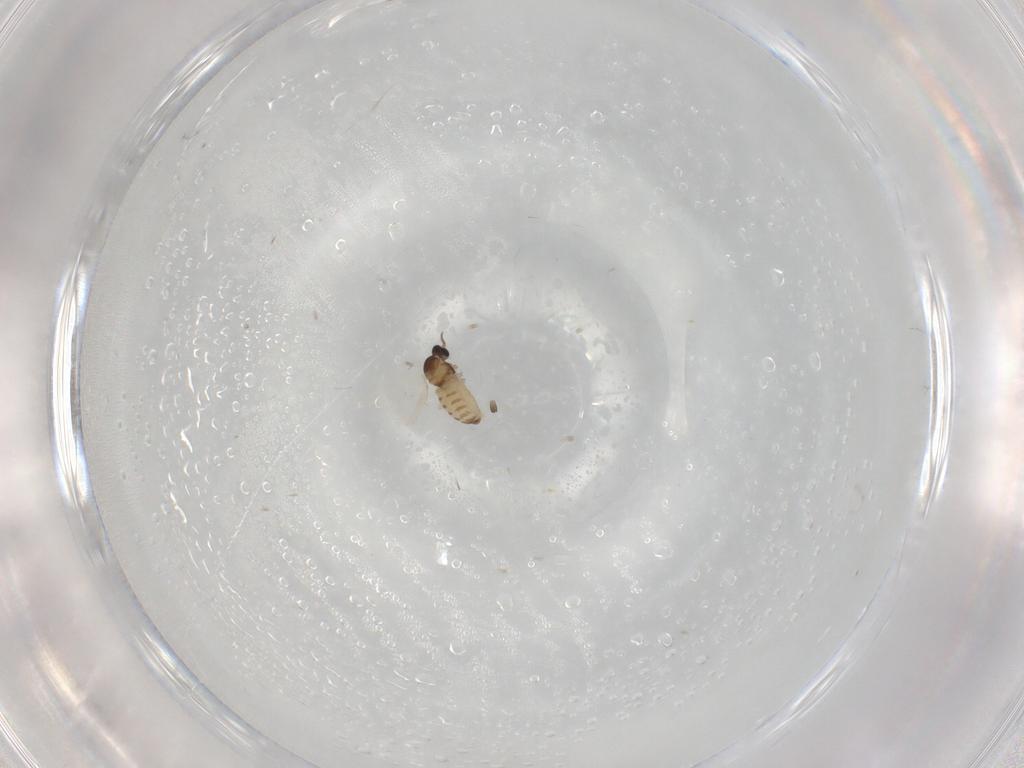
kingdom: Animalia
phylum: Arthropoda
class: Insecta
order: Diptera
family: Cecidomyiidae
